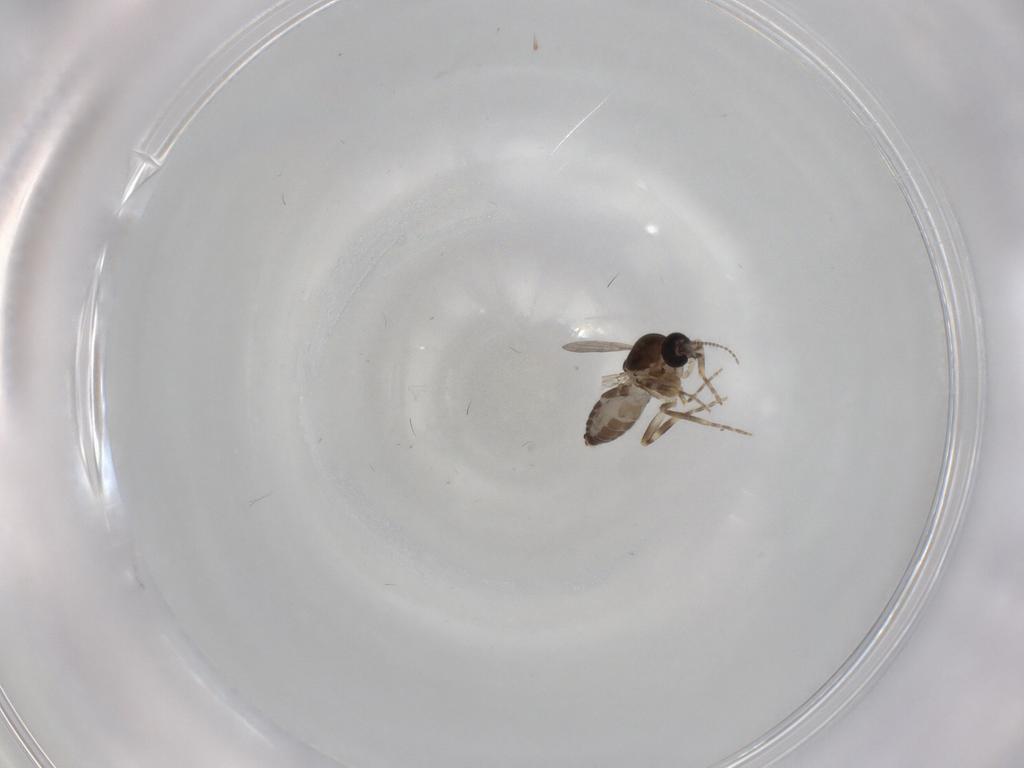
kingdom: Animalia
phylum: Arthropoda
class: Insecta
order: Diptera
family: Ceratopogonidae
